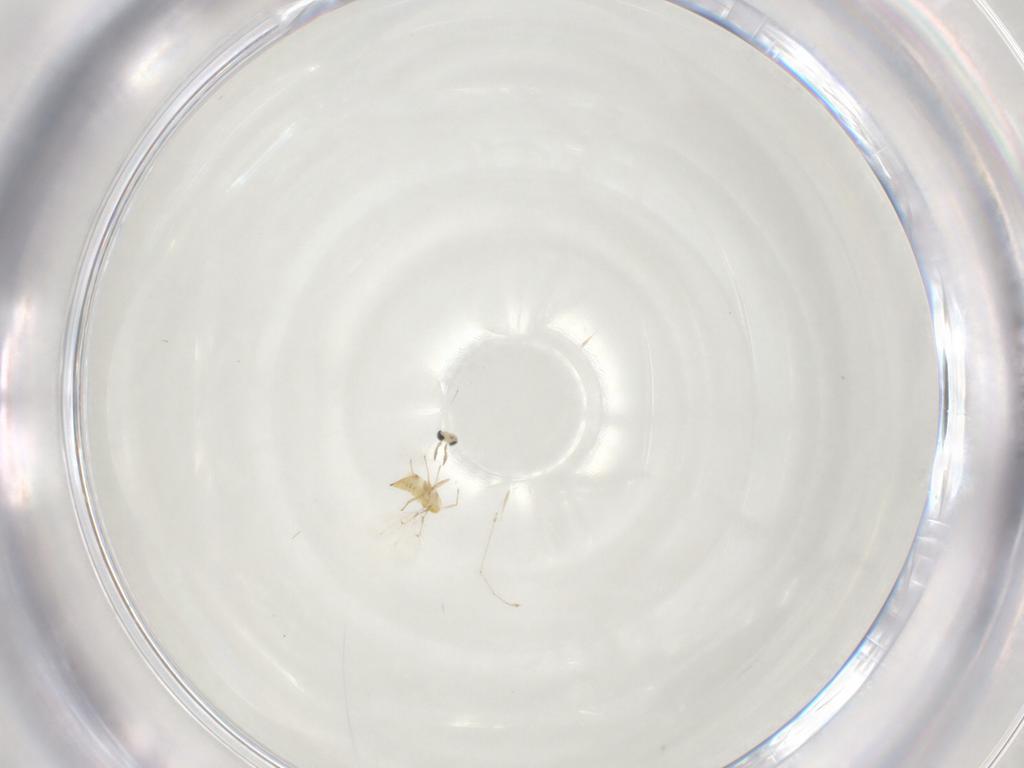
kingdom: Animalia
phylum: Arthropoda
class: Insecta
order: Hymenoptera
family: Trichogrammatidae
